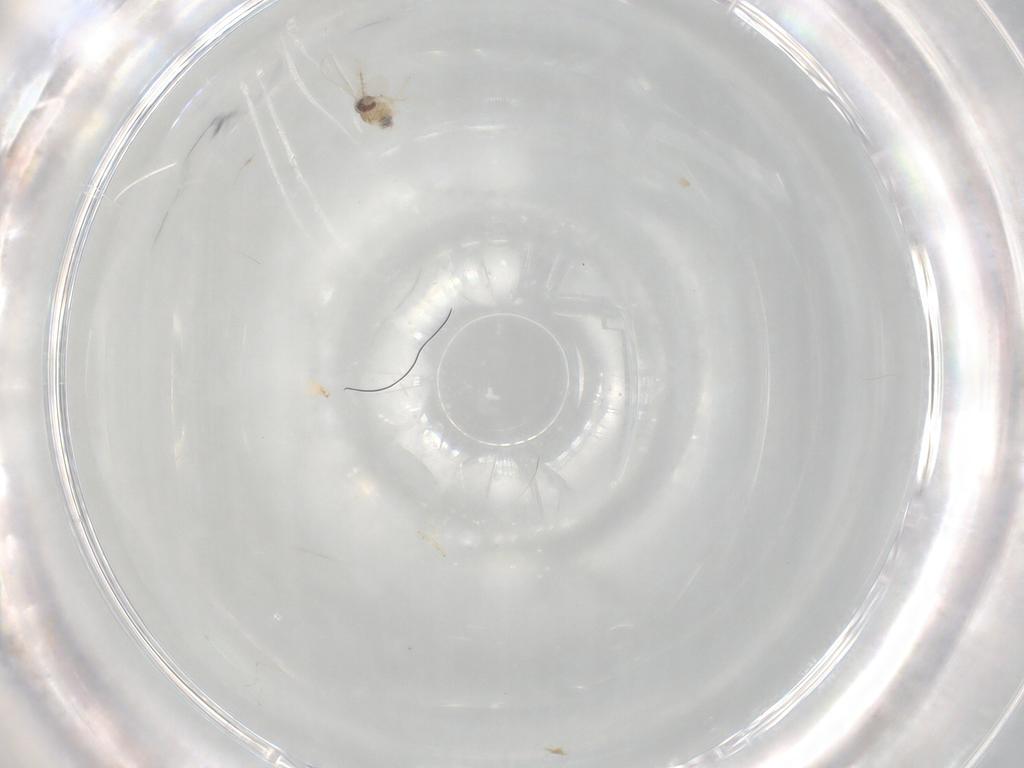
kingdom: Animalia
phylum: Arthropoda
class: Insecta
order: Diptera
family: Cecidomyiidae
